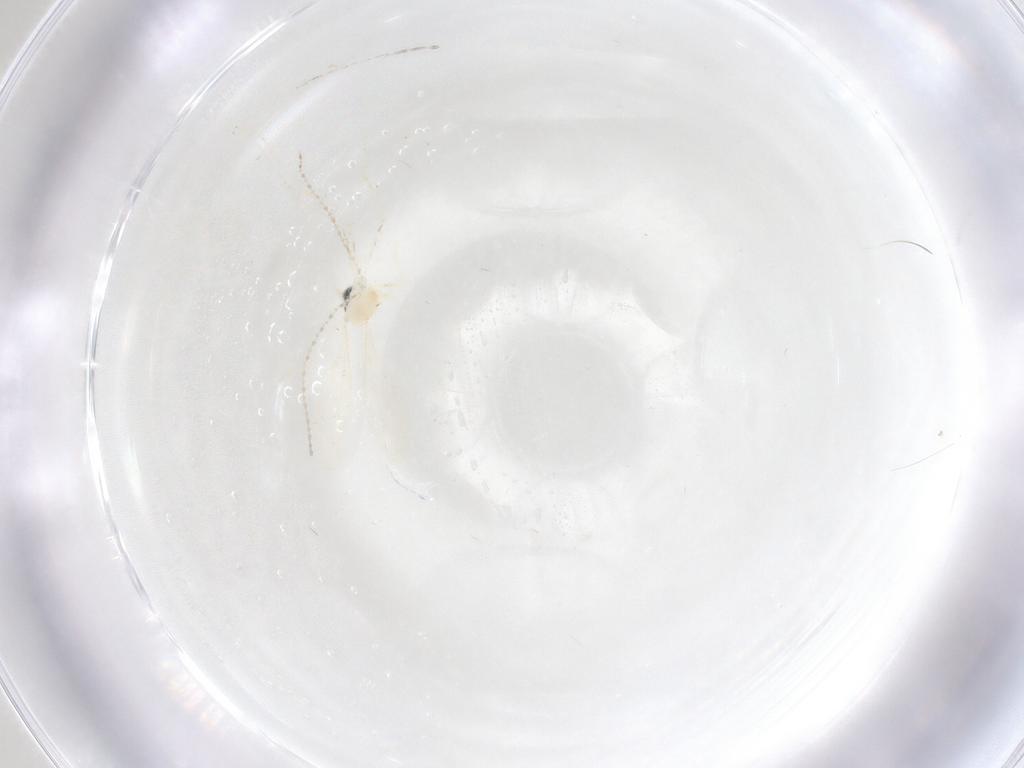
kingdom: Animalia
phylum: Arthropoda
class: Insecta
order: Diptera
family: Cecidomyiidae
